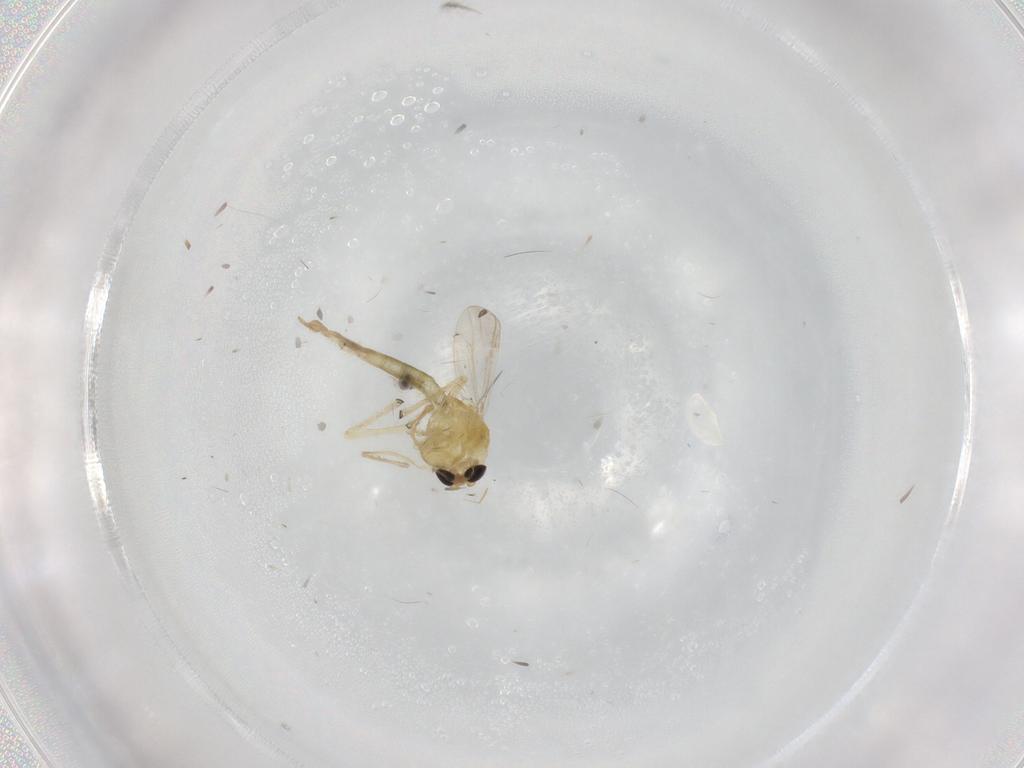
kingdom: Animalia
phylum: Arthropoda
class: Insecta
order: Diptera
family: Chironomidae
